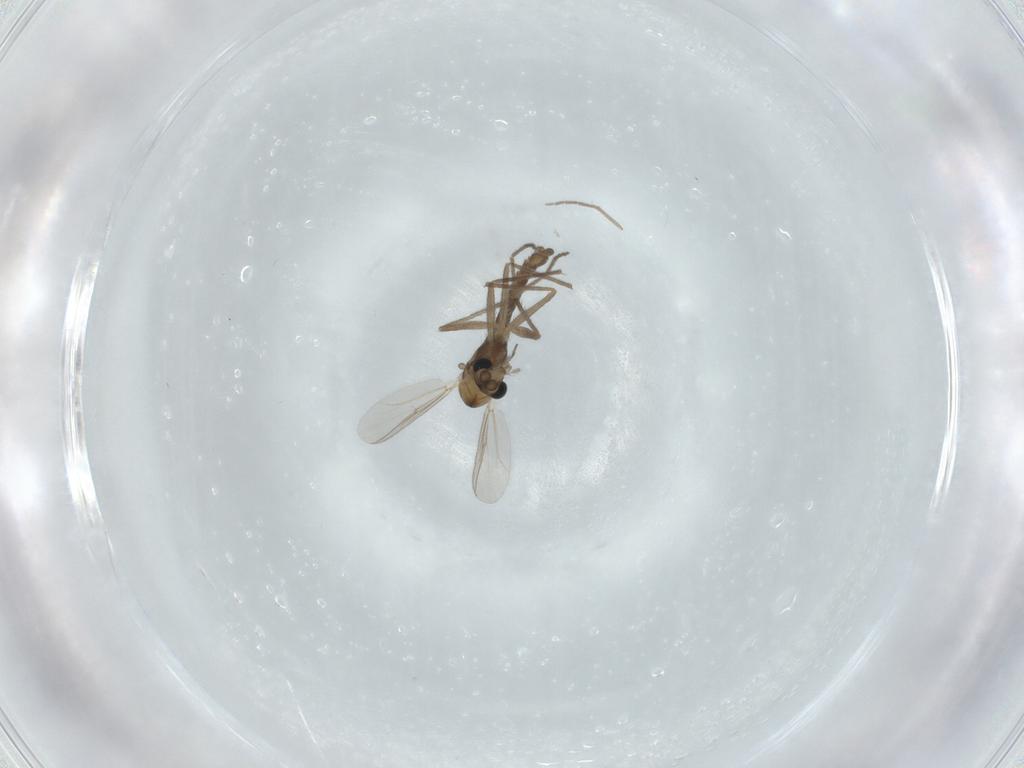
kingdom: Animalia
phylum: Arthropoda
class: Insecta
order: Diptera
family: Chironomidae
